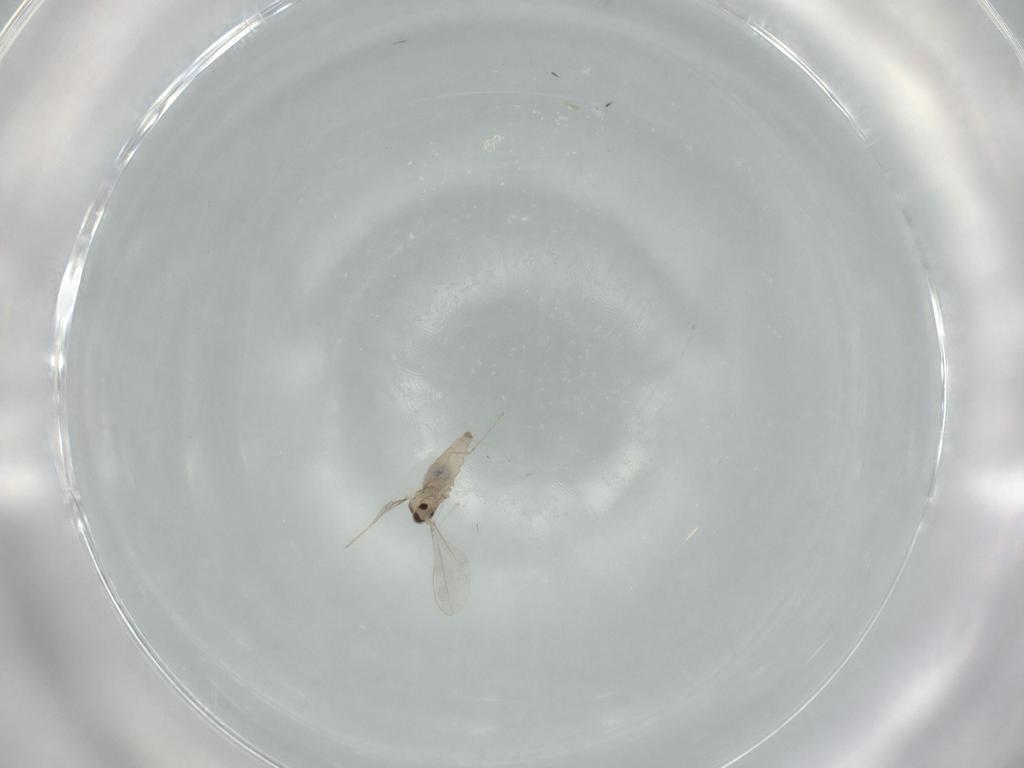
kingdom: Animalia
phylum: Arthropoda
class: Insecta
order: Diptera
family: Cecidomyiidae
